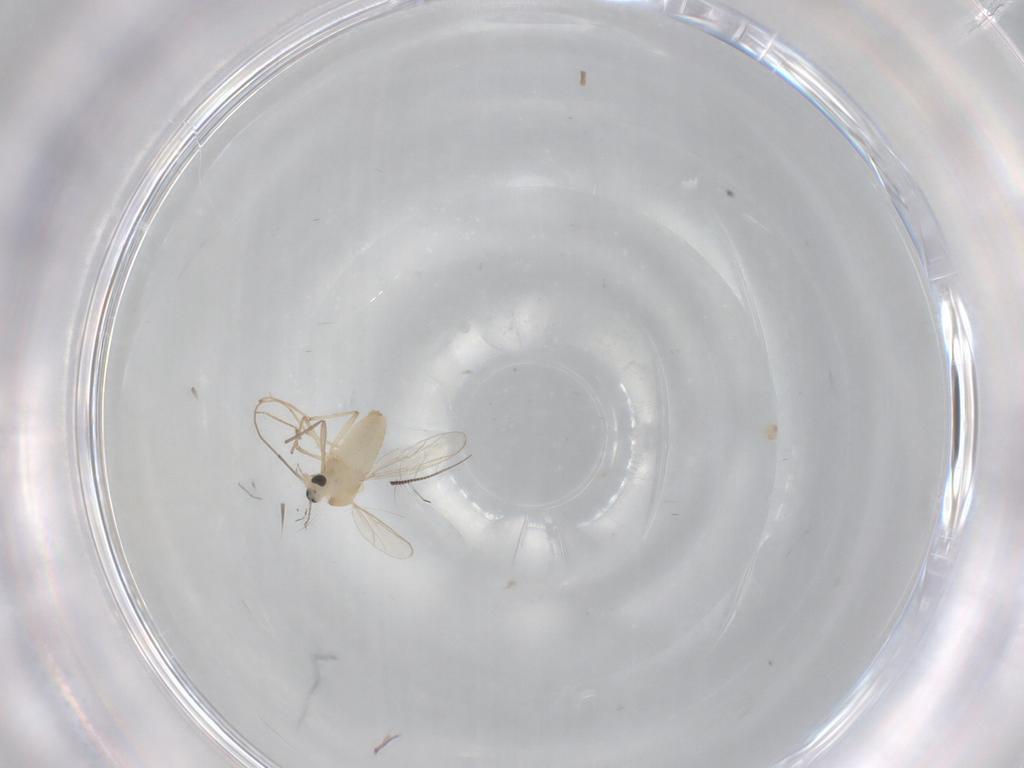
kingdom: Animalia
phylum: Arthropoda
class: Insecta
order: Diptera
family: Chironomidae
